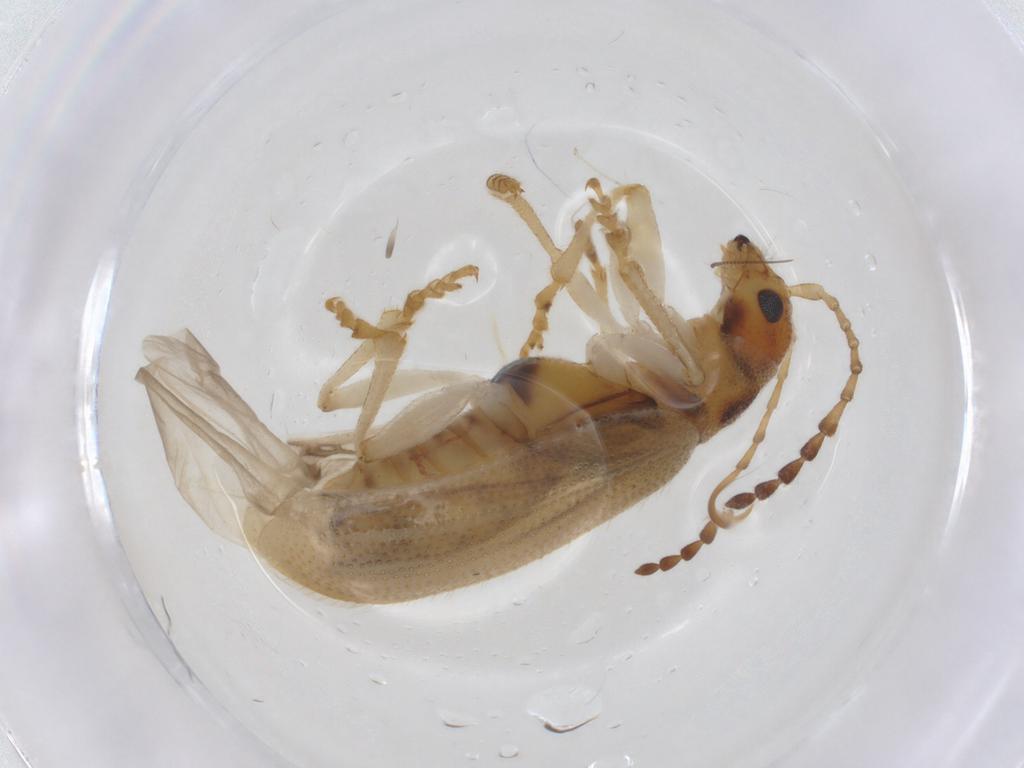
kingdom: Animalia
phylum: Arthropoda
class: Insecta
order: Coleoptera
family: Chrysomelidae
